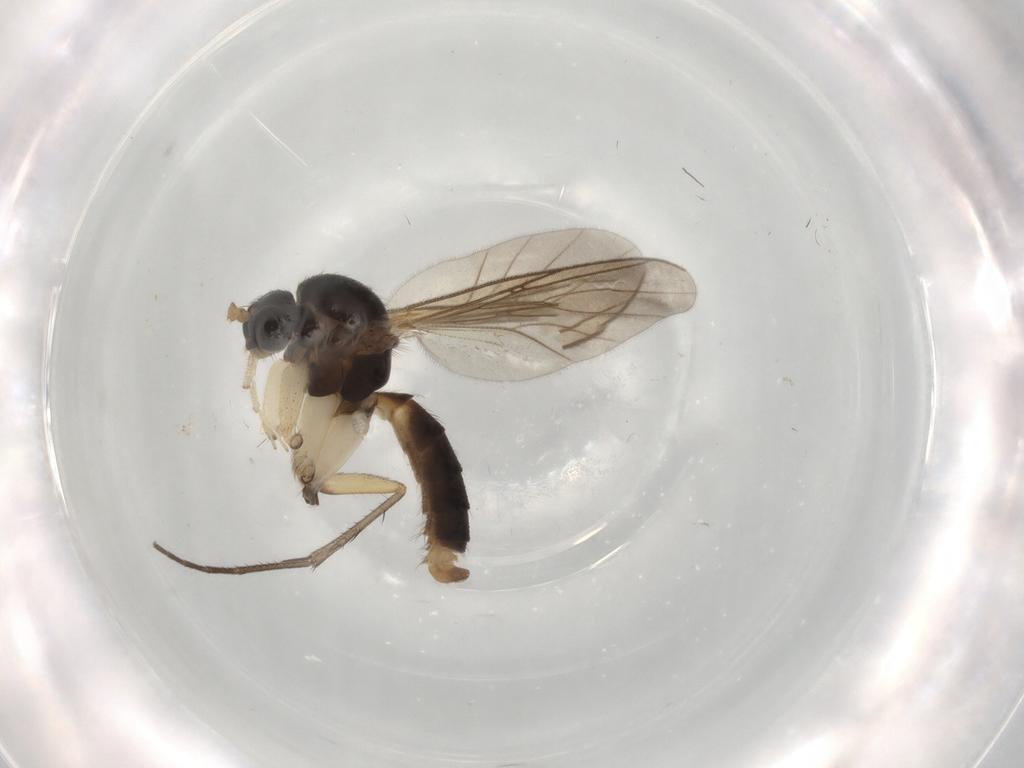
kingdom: Animalia
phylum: Arthropoda
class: Insecta
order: Diptera
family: Mycetophilidae
